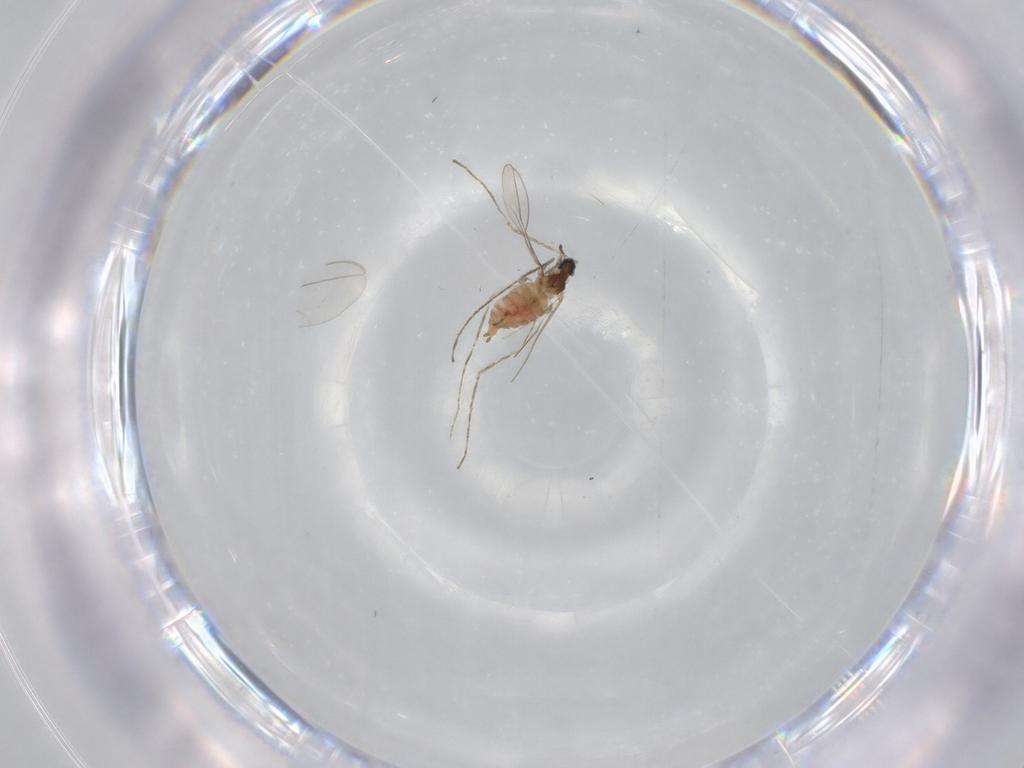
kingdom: Animalia
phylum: Arthropoda
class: Insecta
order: Diptera
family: Cecidomyiidae
